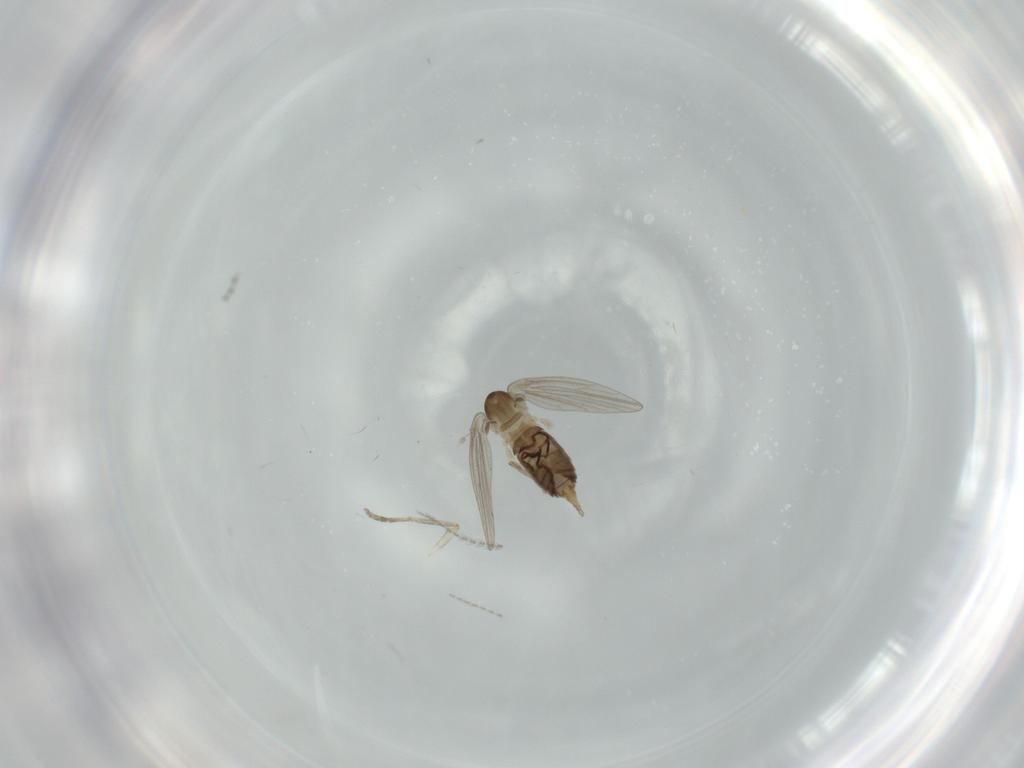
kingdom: Animalia
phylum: Arthropoda
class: Insecta
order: Diptera
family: Psychodidae
